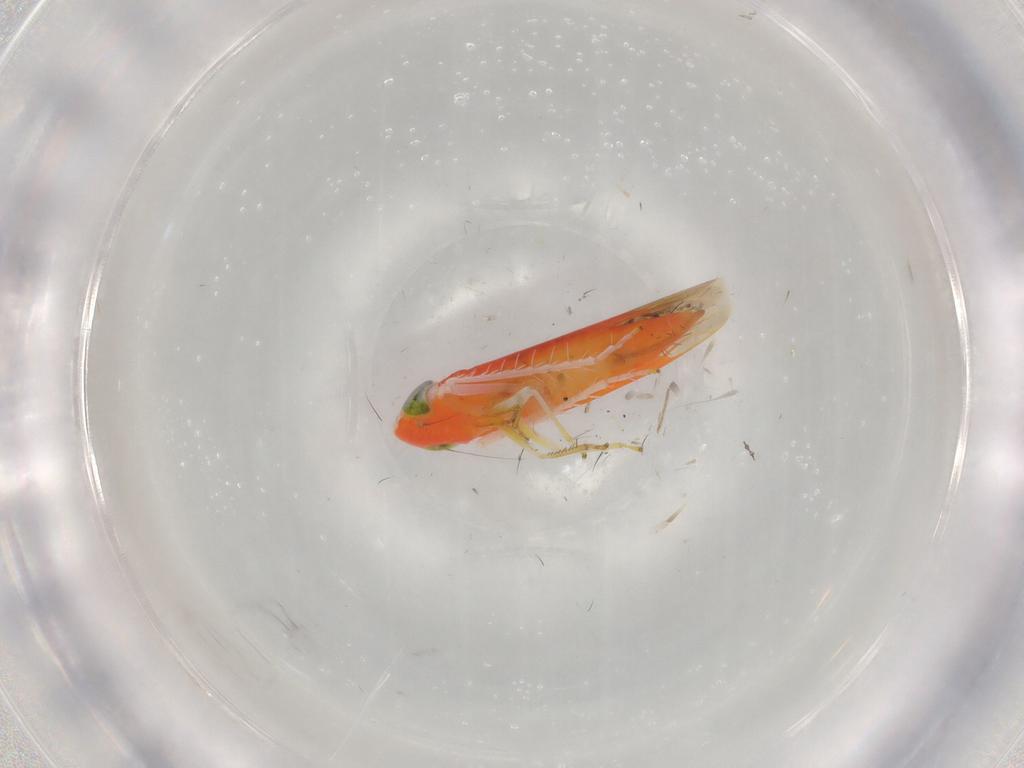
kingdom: Animalia
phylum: Arthropoda
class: Insecta
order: Hemiptera
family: Cicadellidae
